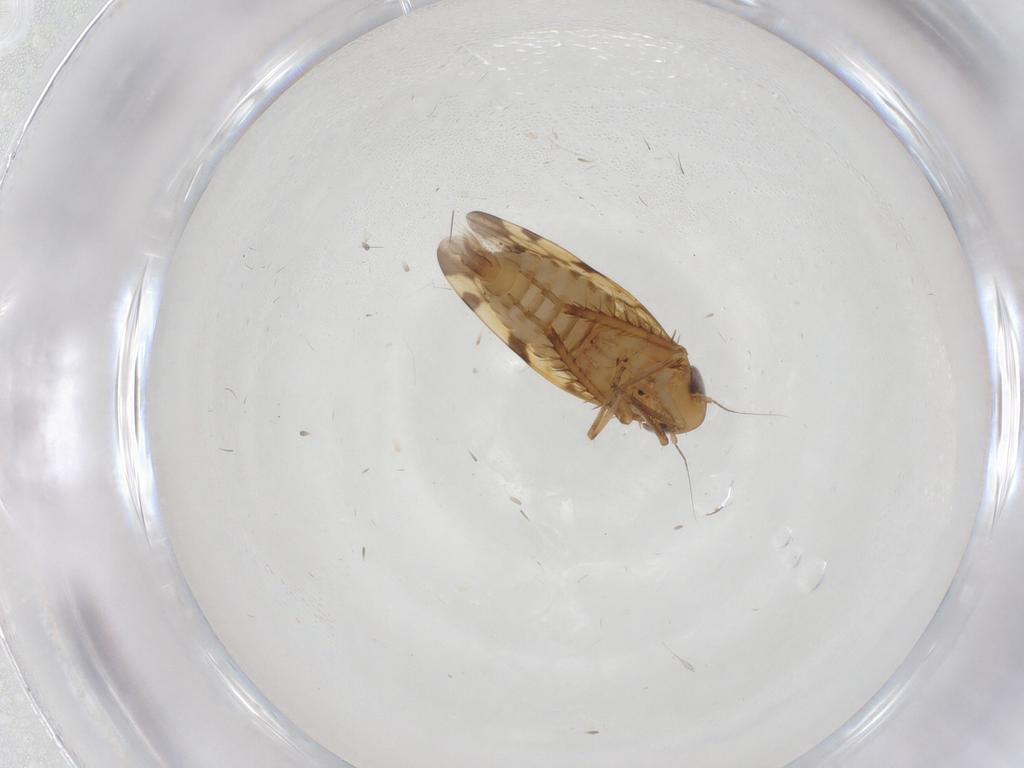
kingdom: Animalia
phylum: Arthropoda
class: Insecta
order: Hemiptera
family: Cicadellidae
